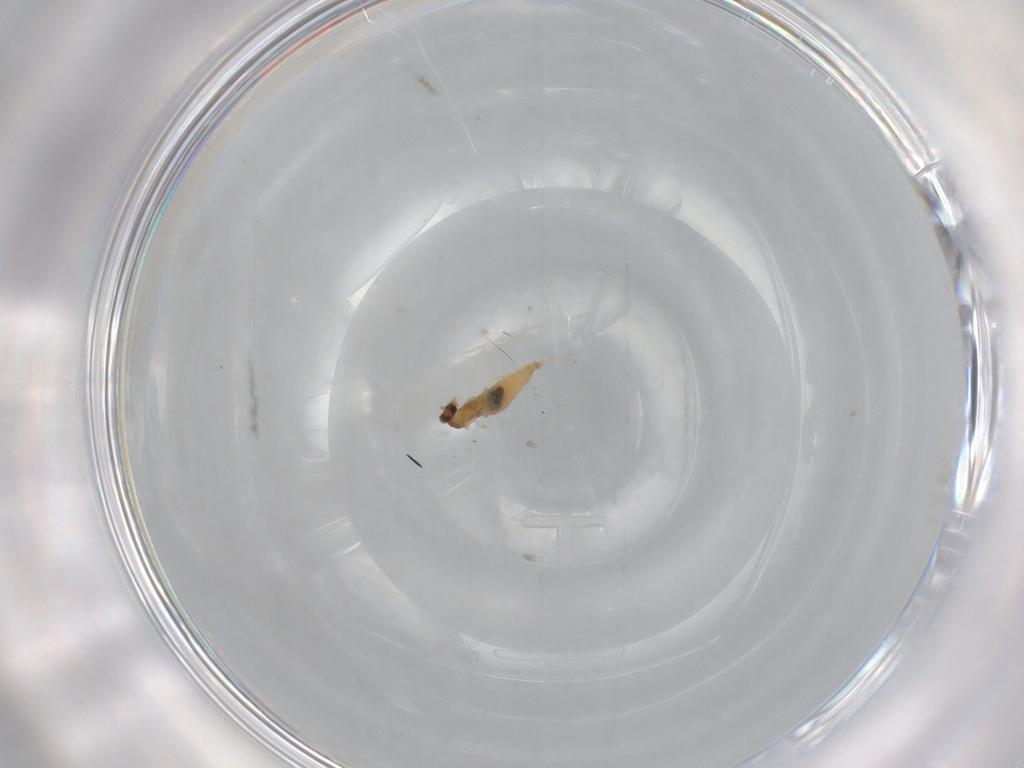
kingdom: Animalia
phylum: Arthropoda
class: Insecta
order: Diptera
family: Cecidomyiidae
